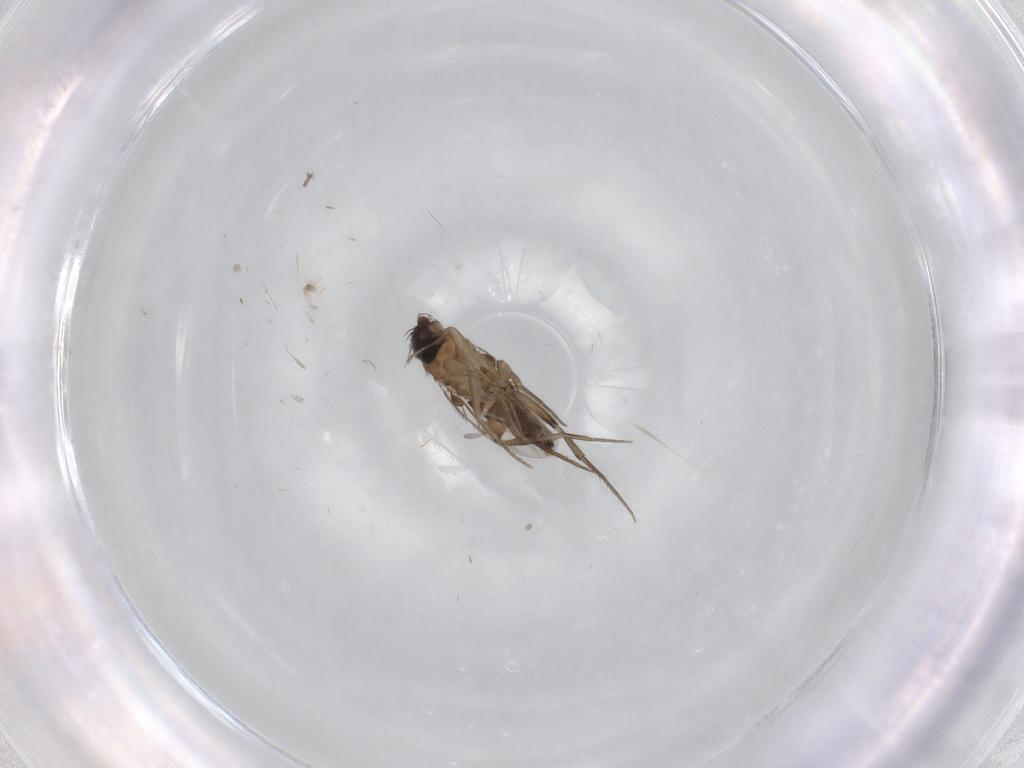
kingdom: Animalia
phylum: Arthropoda
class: Insecta
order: Diptera
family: Phoridae
